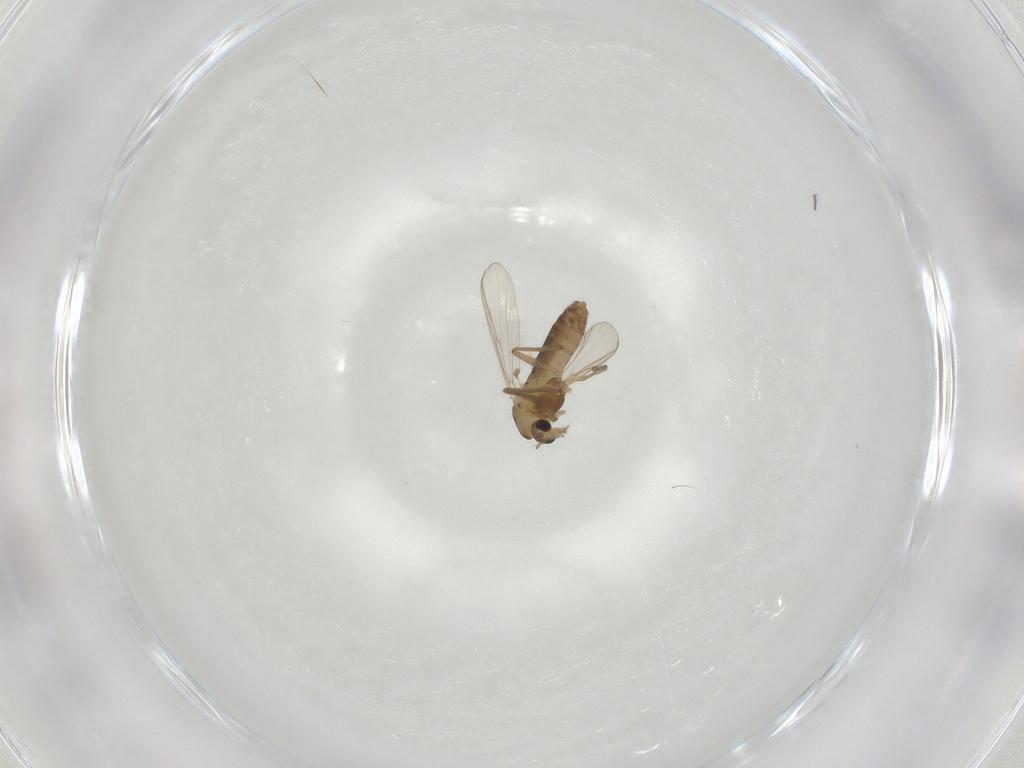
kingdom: Animalia
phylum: Arthropoda
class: Insecta
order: Diptera
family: Chironomidae
